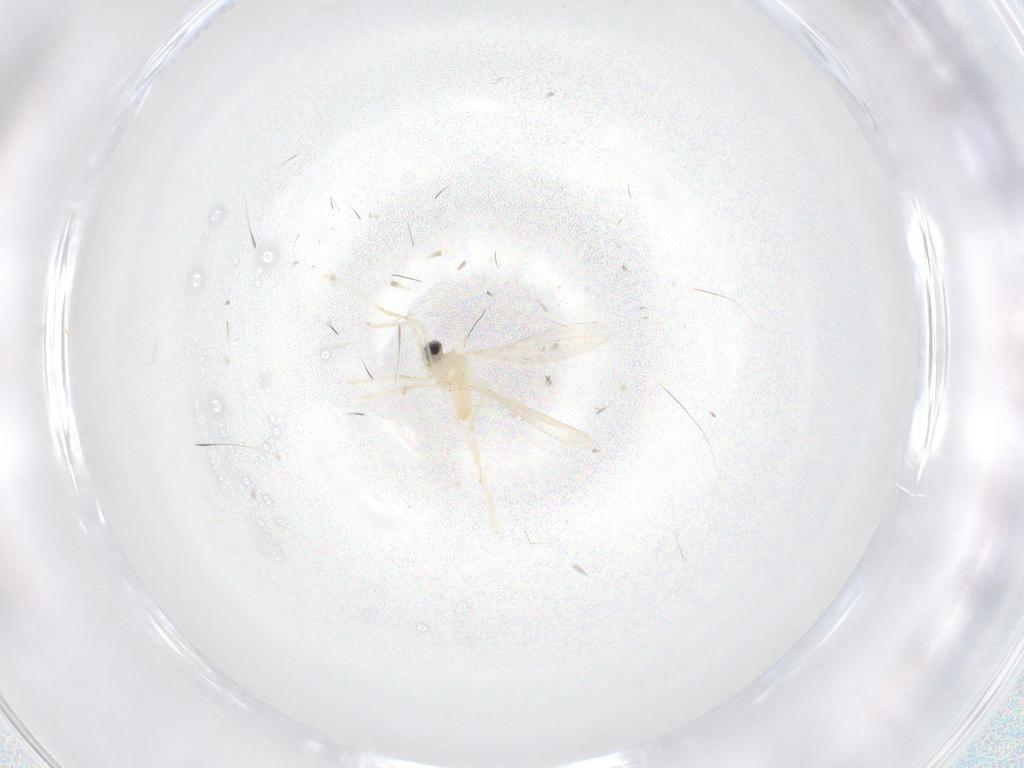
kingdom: Animalia
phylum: Arthropoda
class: Insecta
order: Diptera
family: Cecidomyiidae
